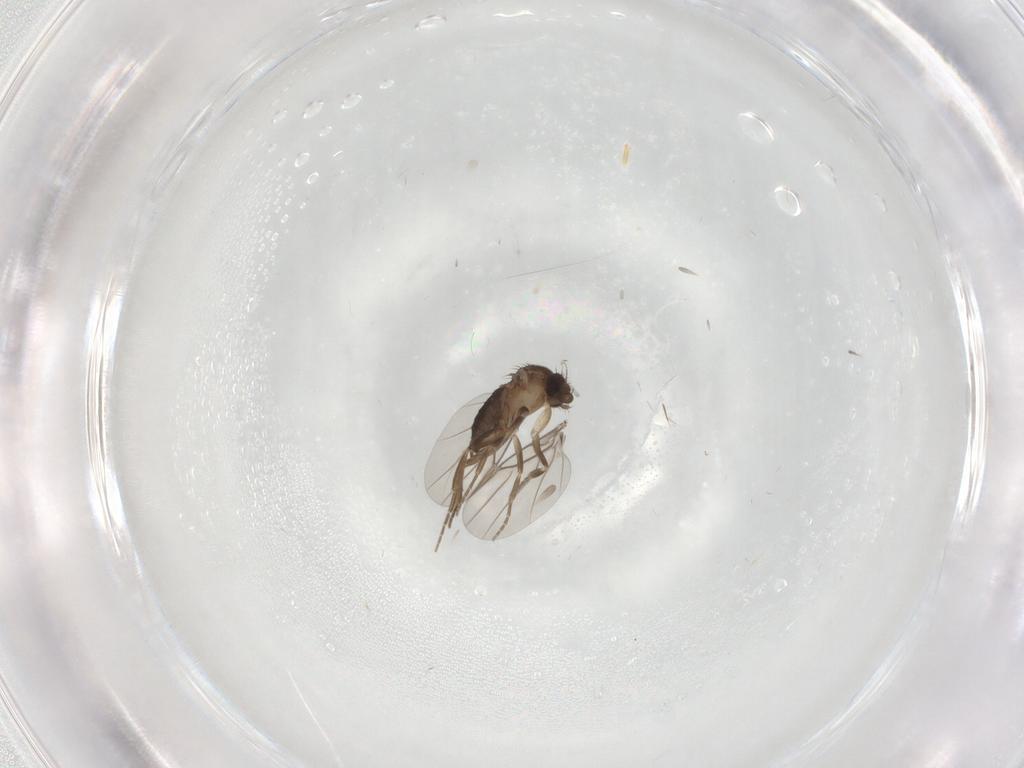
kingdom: Animalia
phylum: Arthropoda
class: Insecta
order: Diptera
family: Phoridae
